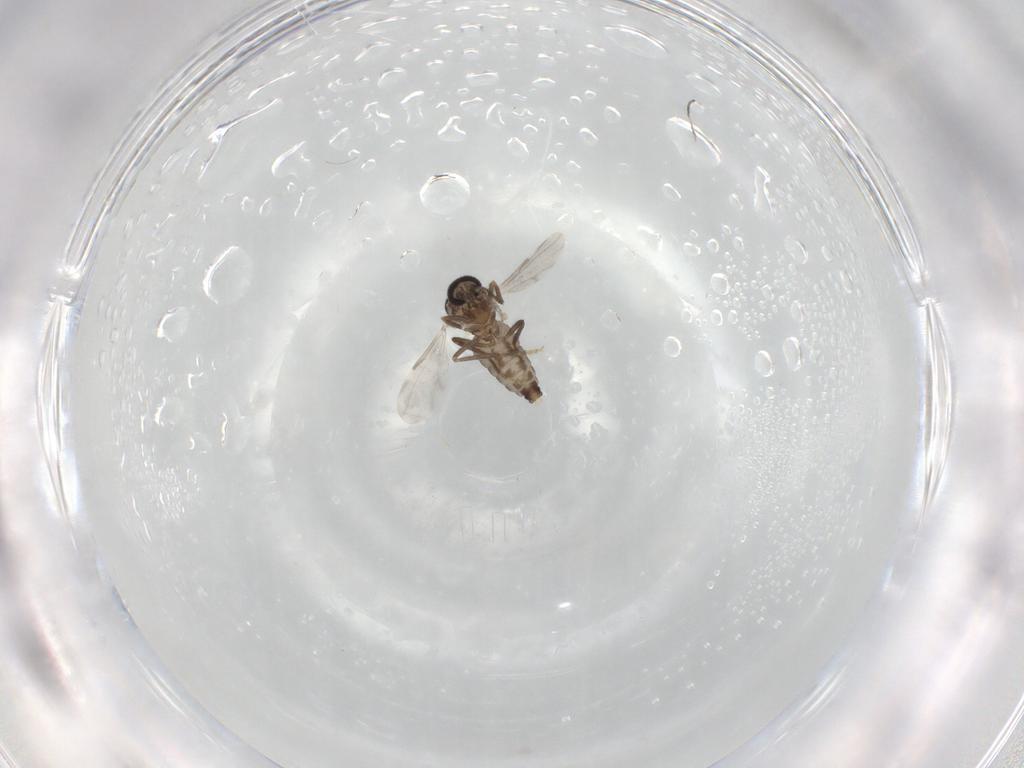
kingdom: Animalia
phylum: Arthropoda
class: Insecta
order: Diptera
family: Ceratopogonidae
